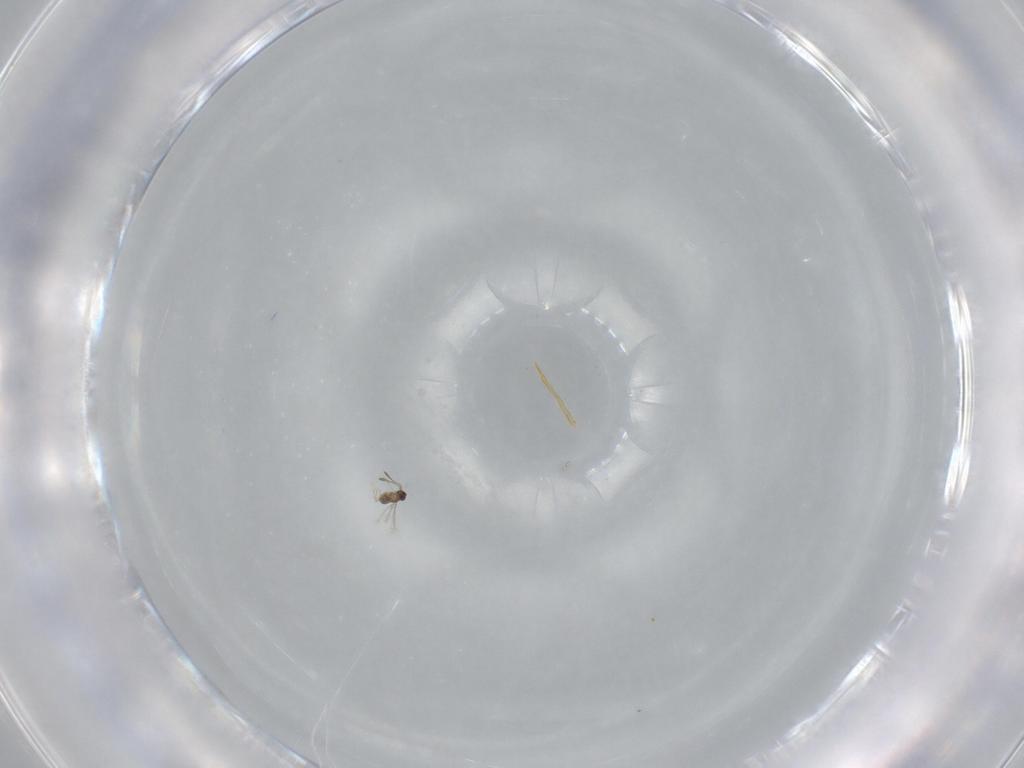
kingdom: Animalia
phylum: Arthropoda
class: Insecta
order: Hymenoptera
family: Scelionidae
